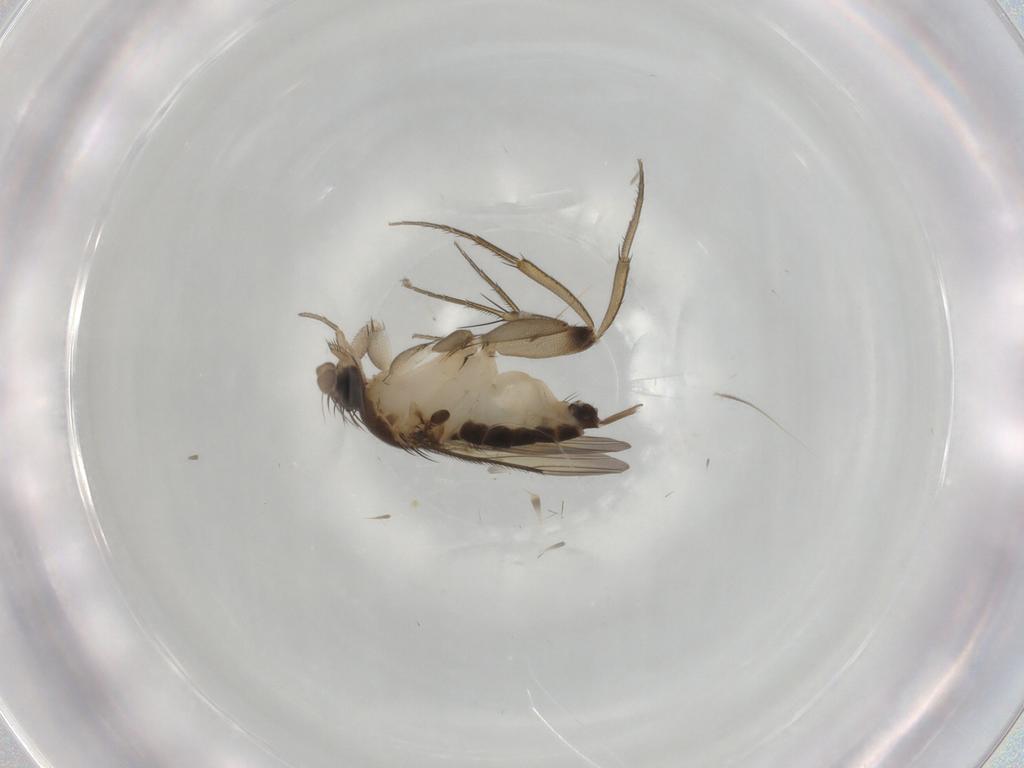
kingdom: Animalia
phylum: Arthropoda
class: Insecta
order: Diptera
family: Phoridae
